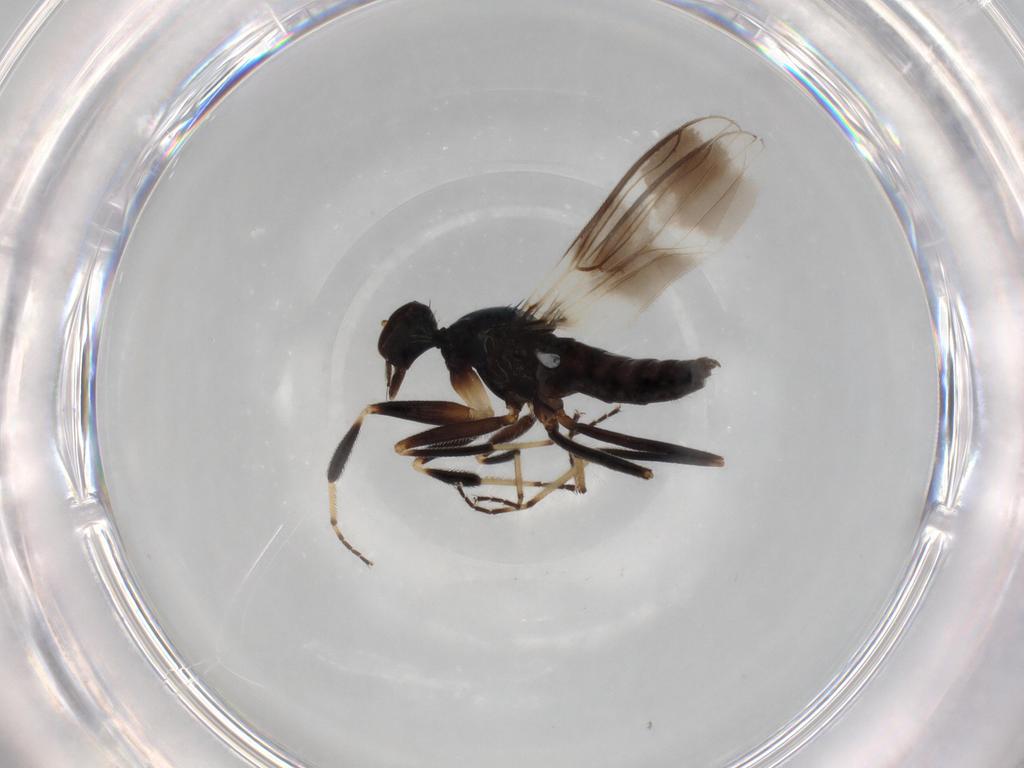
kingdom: Animalia
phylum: Arthropoda
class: Insecta
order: Diptera
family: Hybotidae
